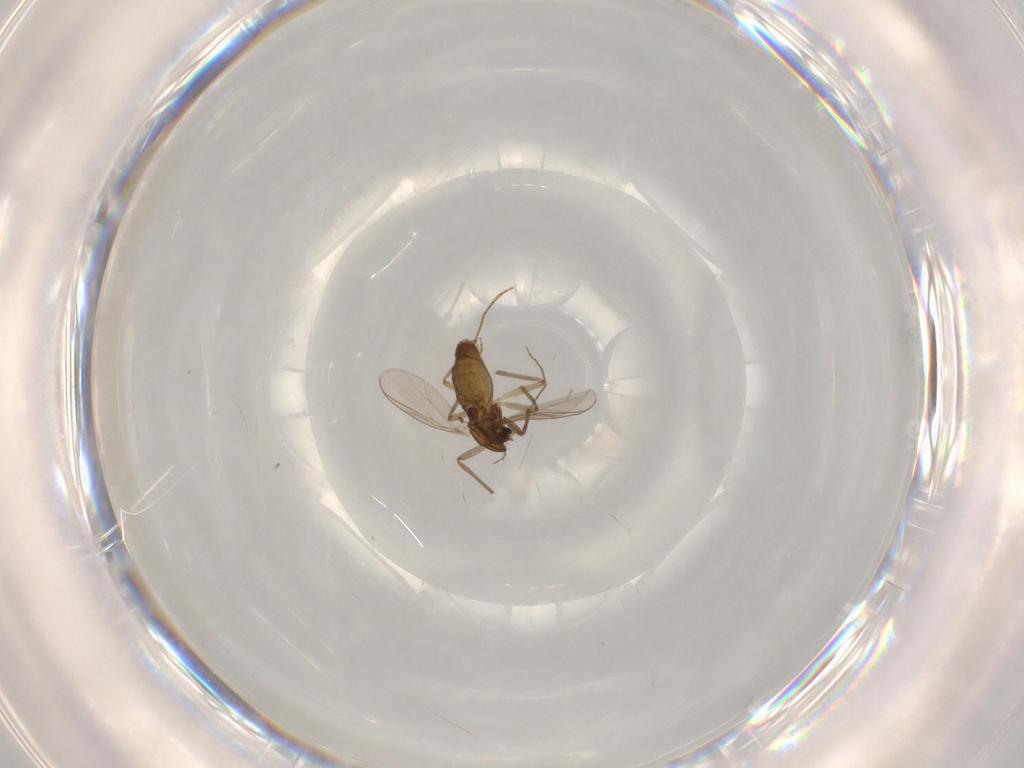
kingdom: Animalia
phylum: Arthropoda
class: Insecta
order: Diptera
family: Chironomidae
